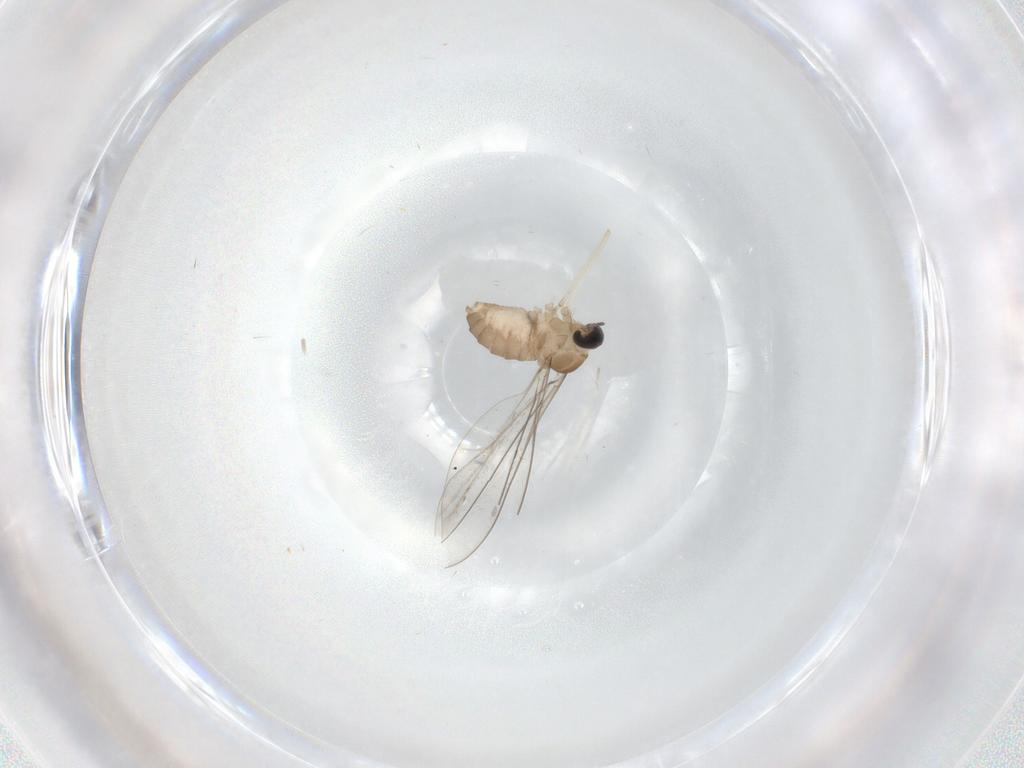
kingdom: Animalia
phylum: Arthropoda
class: Insecta
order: Diptera
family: Cecidomyiidae
